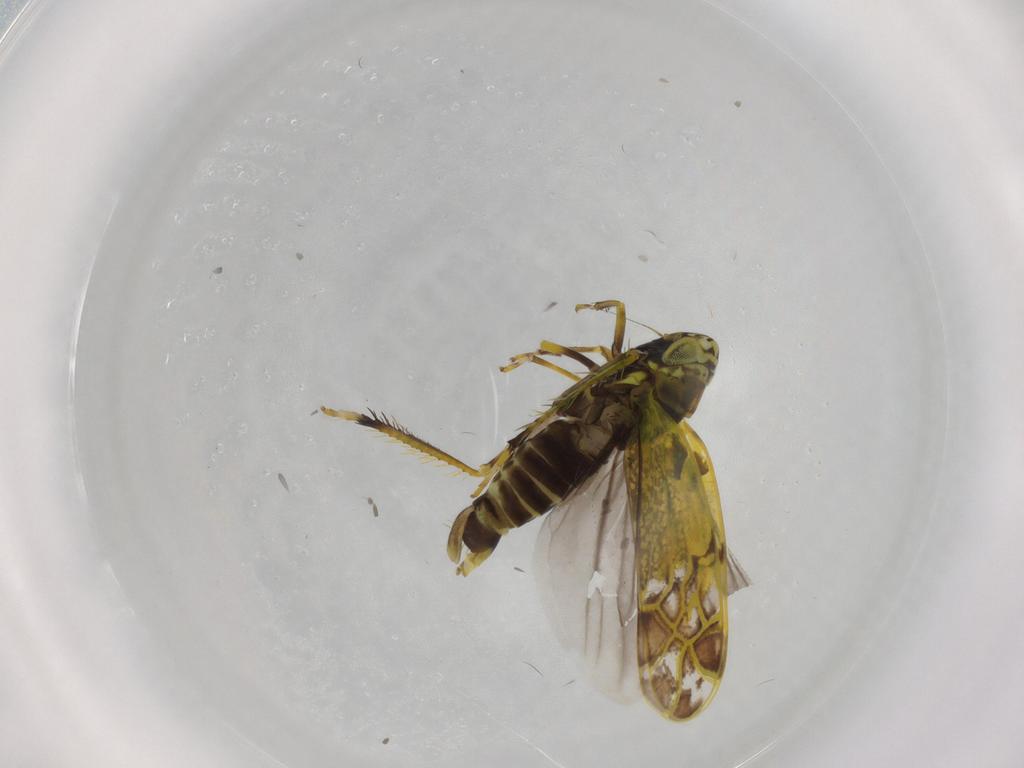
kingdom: Animalia
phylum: Arthropoda
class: Insecta
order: Hemiptera
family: Cicadellidae
